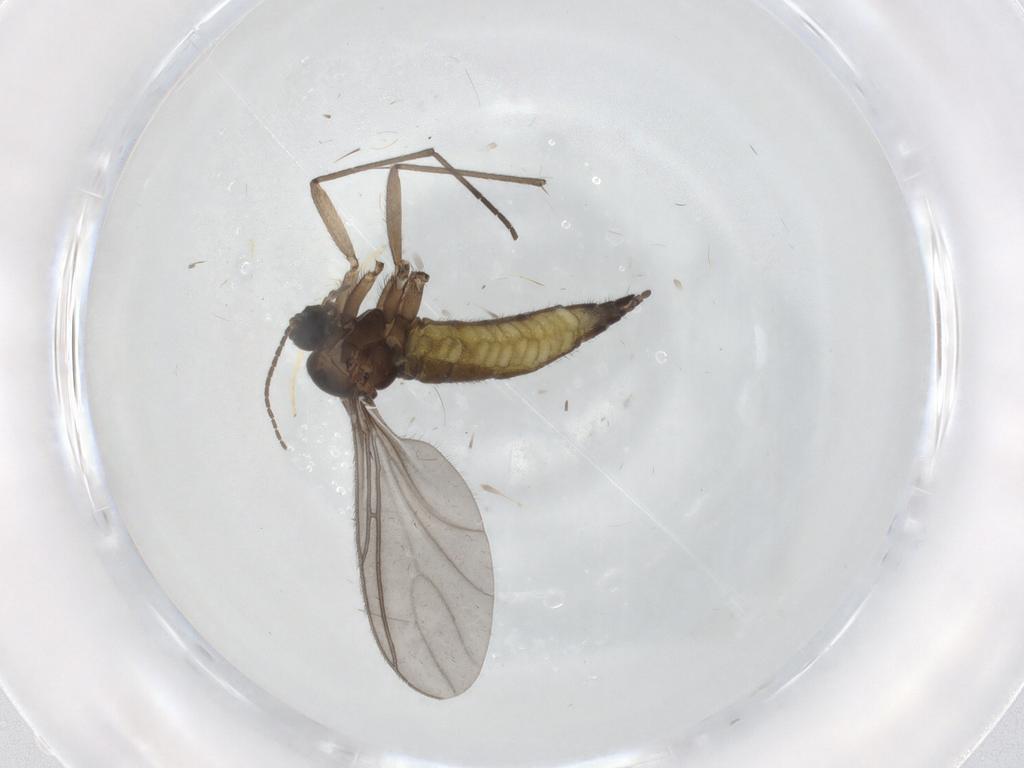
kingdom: Animalia
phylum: Arthropoda
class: Insecta
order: Diptera
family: Sciaridae
